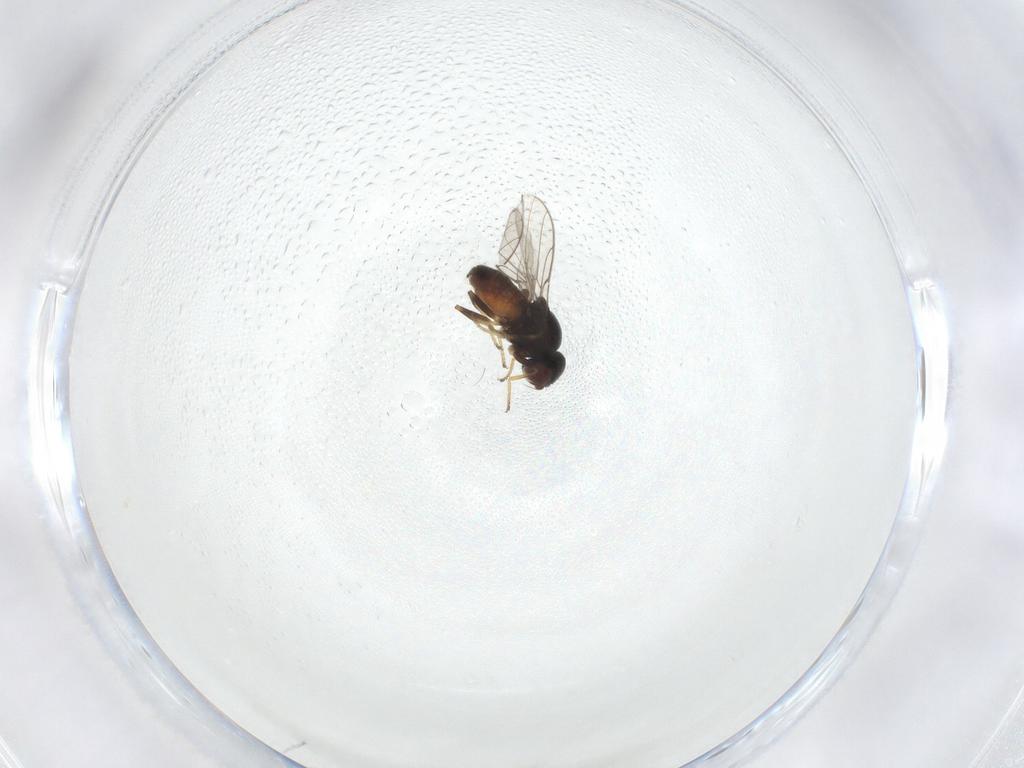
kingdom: Animalia
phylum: Arthropoda
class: Insecta
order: Diptera
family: Chloropidae
